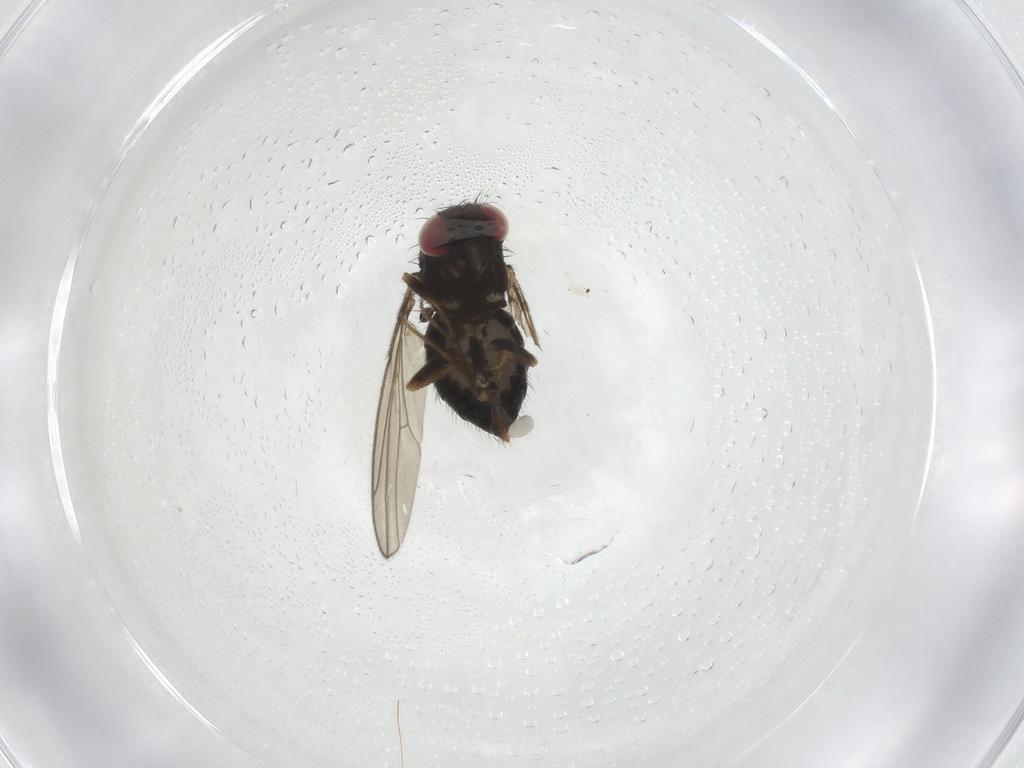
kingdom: Animalia
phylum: Arthropoda
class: Insecta
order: Diptera
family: Drosophilidae
